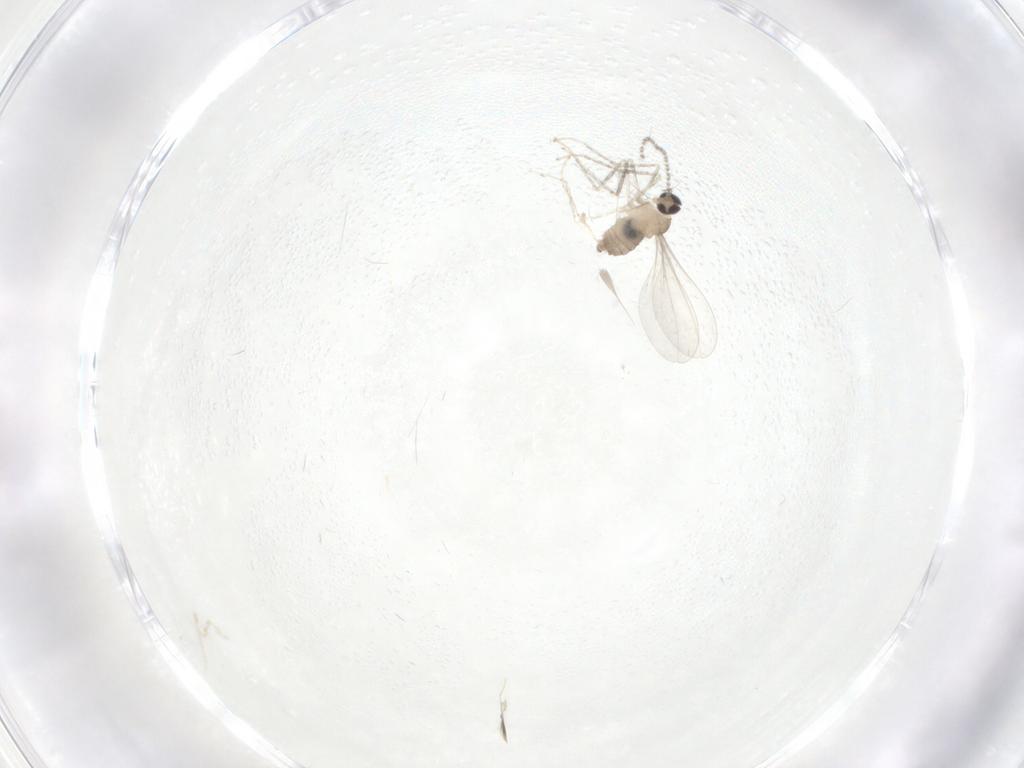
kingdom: Animalia
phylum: Arthropoda
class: Insecta
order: Diptera
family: Cecidomyiidae
